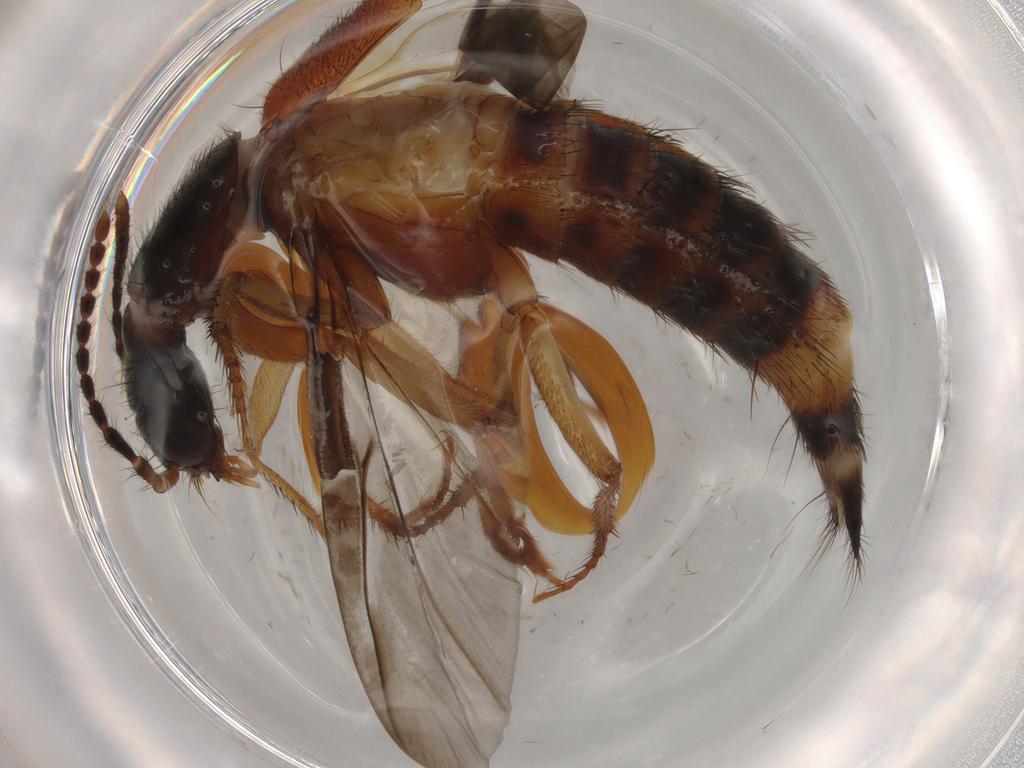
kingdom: Animalia
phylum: Arthropoda
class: Insecta
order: Coleoptera
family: Staphylinidae
